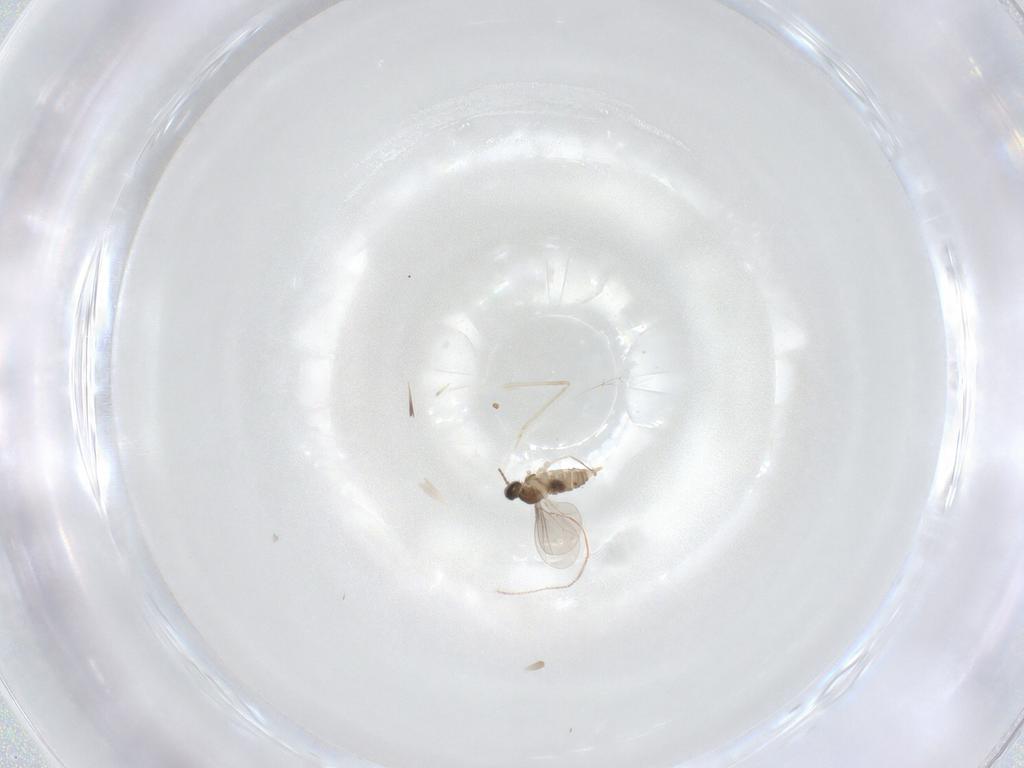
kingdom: Animalia
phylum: Arthropoda
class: Insecta
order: Diptera
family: Cecidomyiidae
